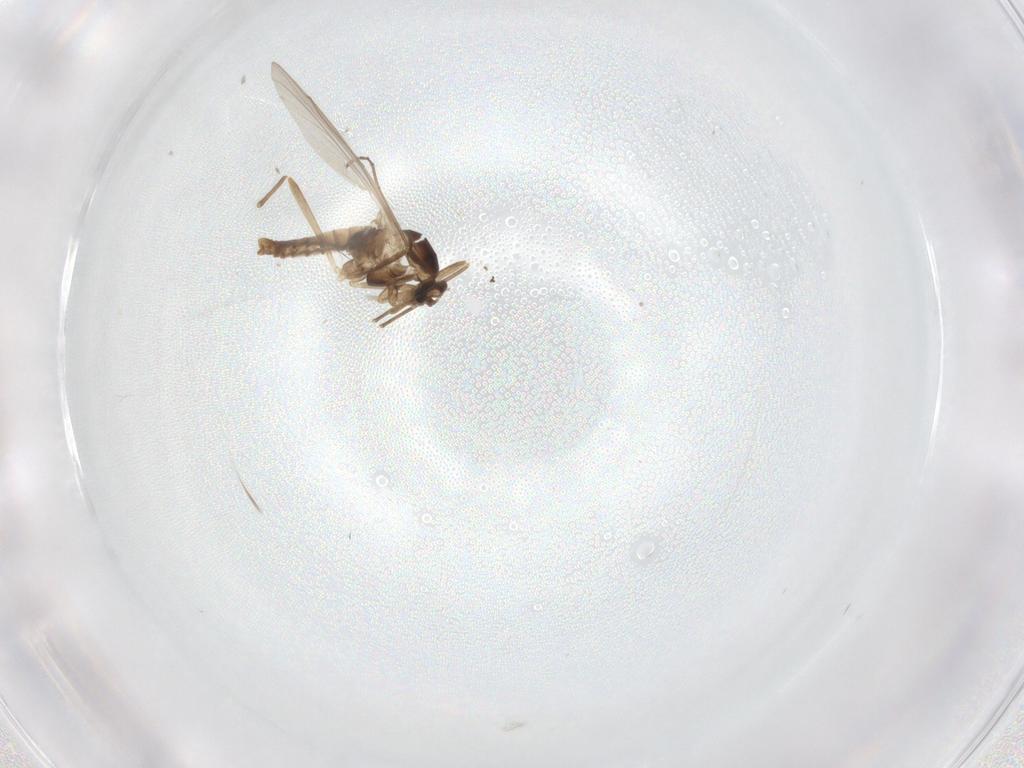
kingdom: Animalia
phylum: Arthropoda
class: Insecta
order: Diptera
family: Cecidomyiidae
